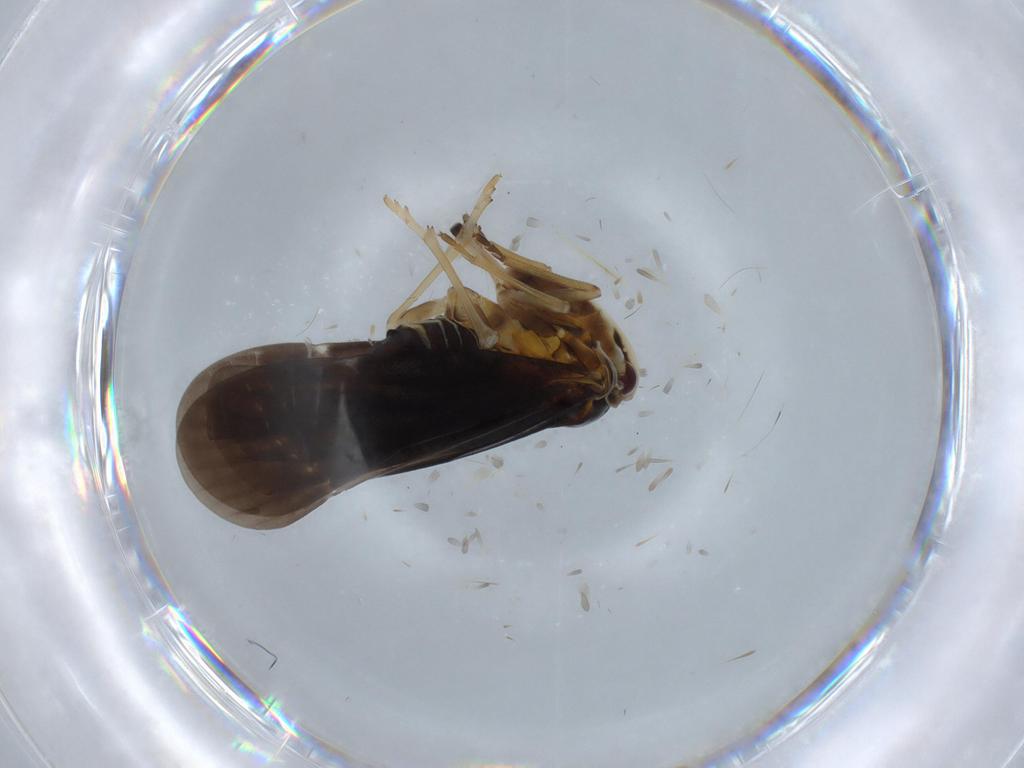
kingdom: Animalia
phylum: Arthropoda
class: Insecta
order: Hemiptera
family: Derbidae
